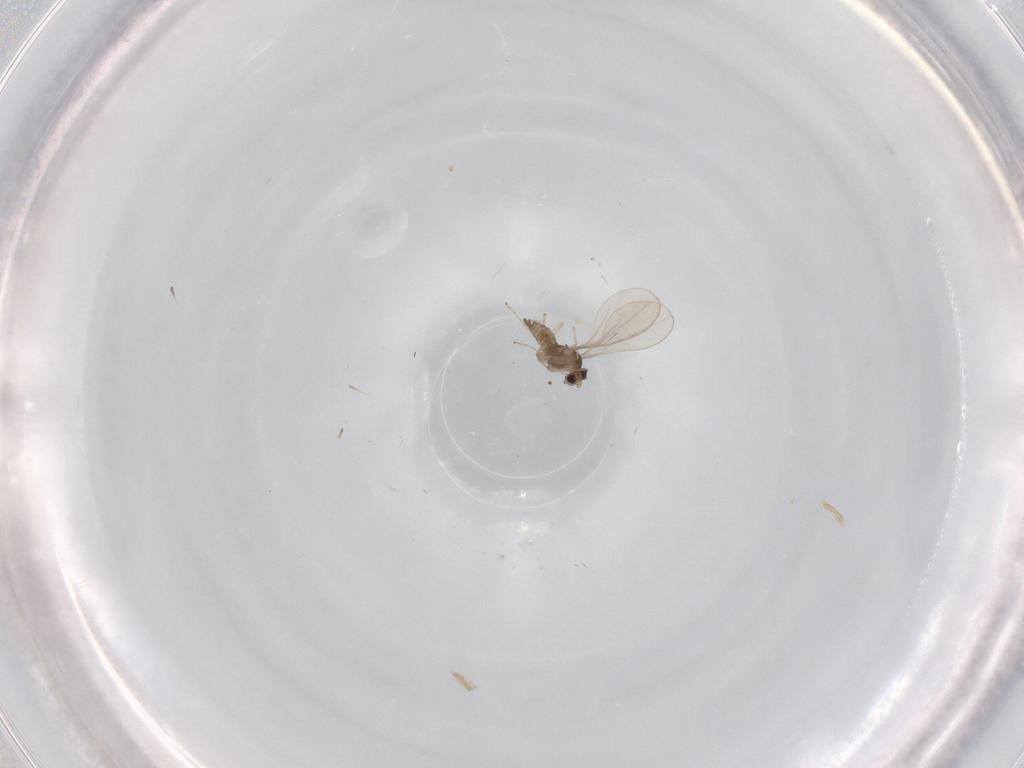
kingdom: Animalia
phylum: Arthropoda
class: Insecta
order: Diptera
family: Cecidomyiidae
